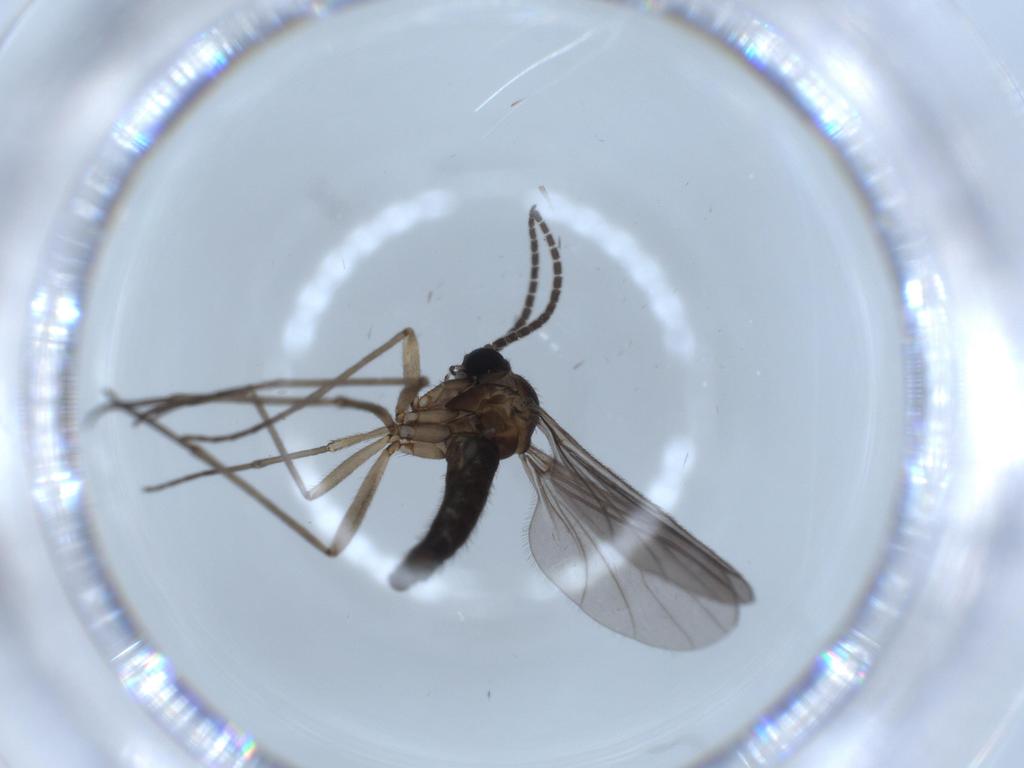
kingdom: Animalia
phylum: Arthropoda
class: Insecta
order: Diptera
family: Sciaridae
